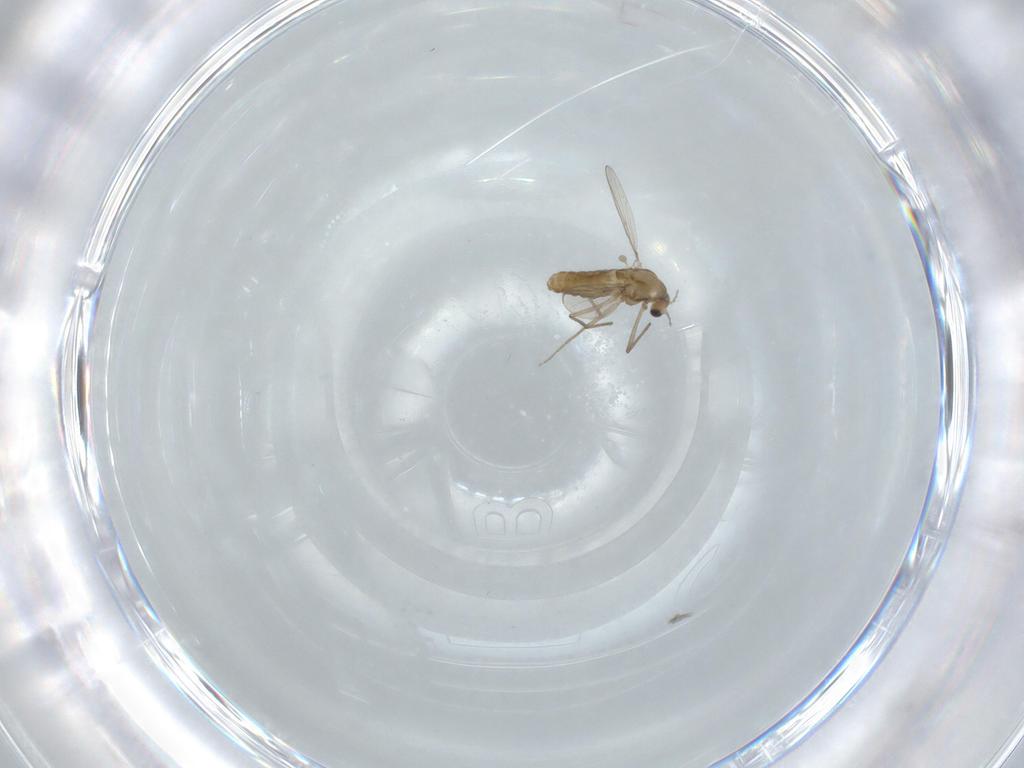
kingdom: Animalia
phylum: Arthropoda
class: Insecta
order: Diptera
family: Chironomidae
